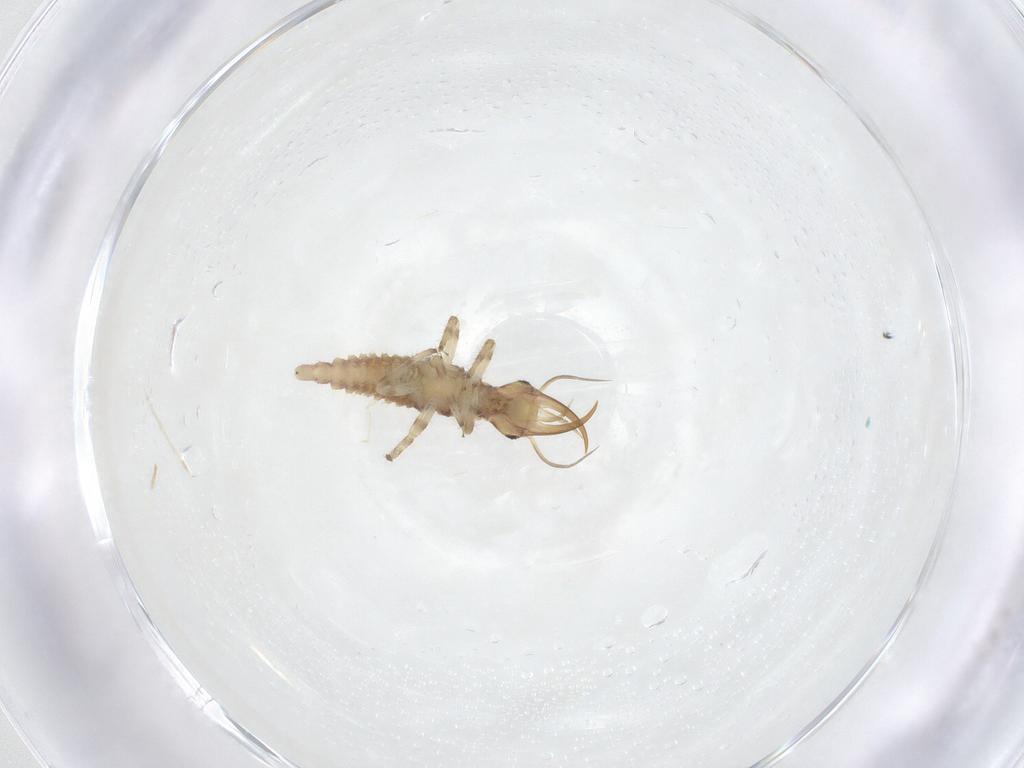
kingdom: Animalia
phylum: Arthropoda
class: Insecta
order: Neuroptera
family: Chrysopidae
